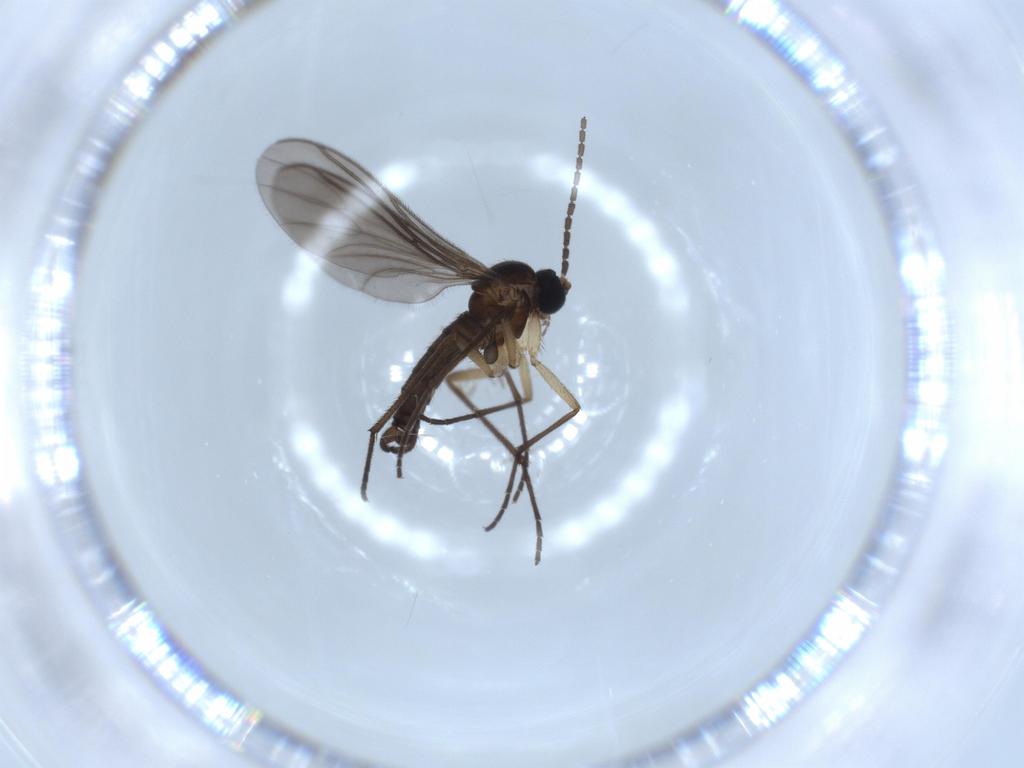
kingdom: Animalia
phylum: Arthropoda
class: Insecta
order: Diptera
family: Sciaridae
